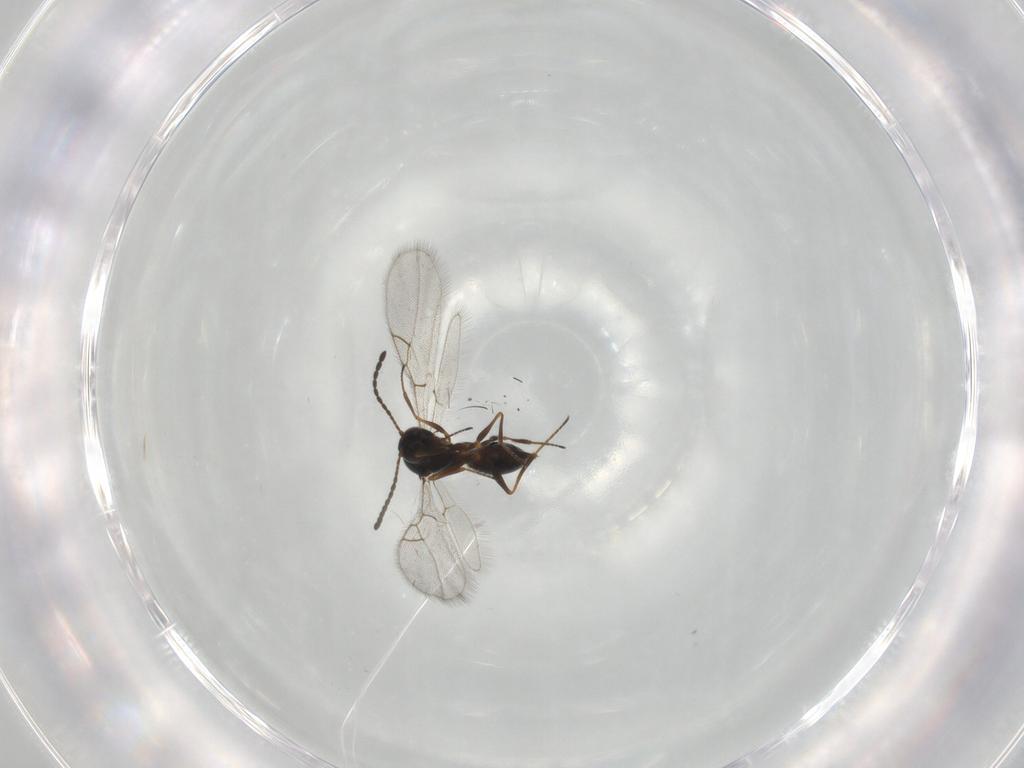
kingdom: Animalia
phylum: Arthropoda
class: Insecta
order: Hymenoptera
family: Figitidae
